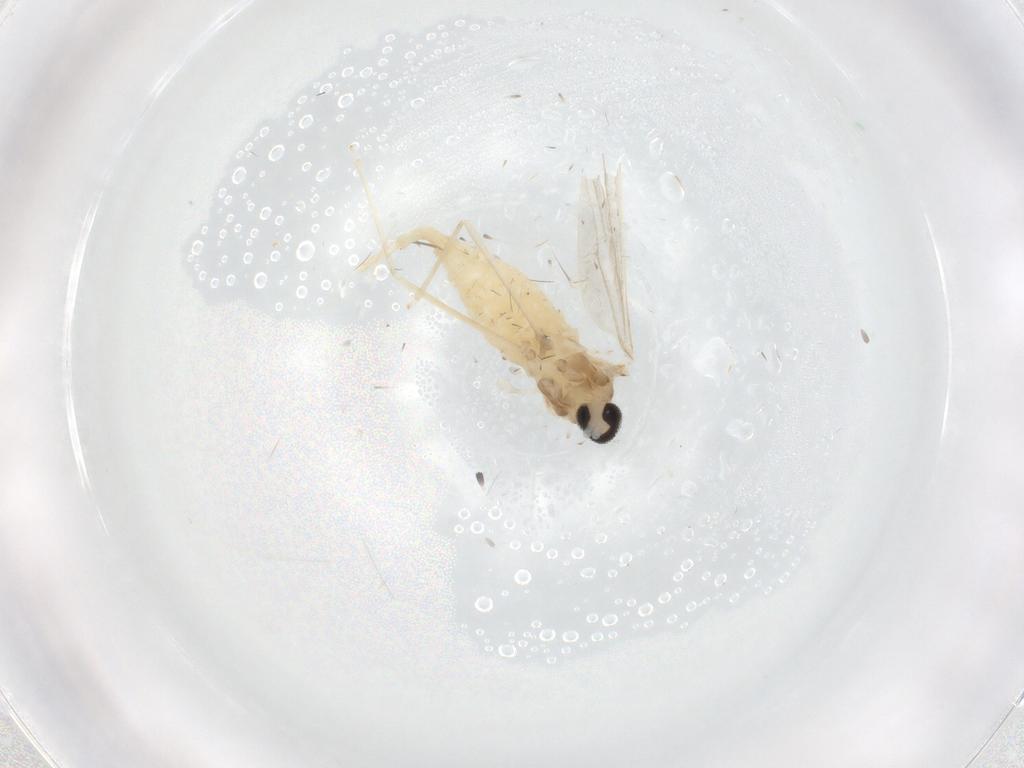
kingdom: Animalia
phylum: Arthropoda
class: Insecta
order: Diptera
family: Cecidomyiidae
